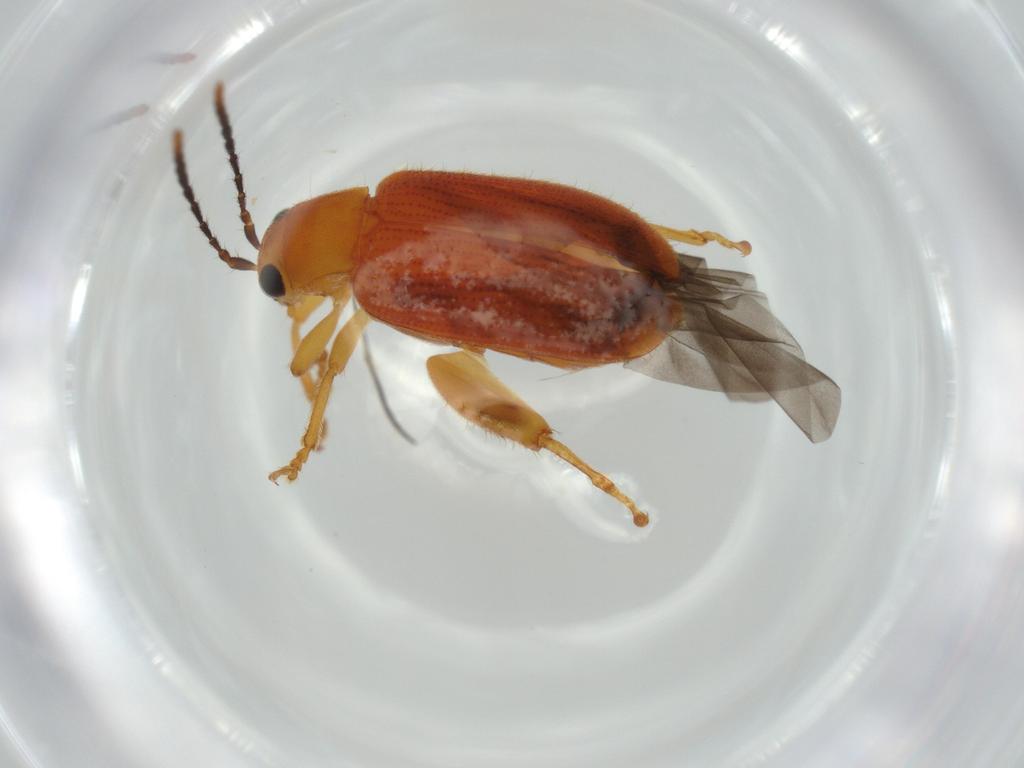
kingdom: Animalia
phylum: Arthropoda
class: Insecta
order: Coleoptera
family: Chrysomelidae
